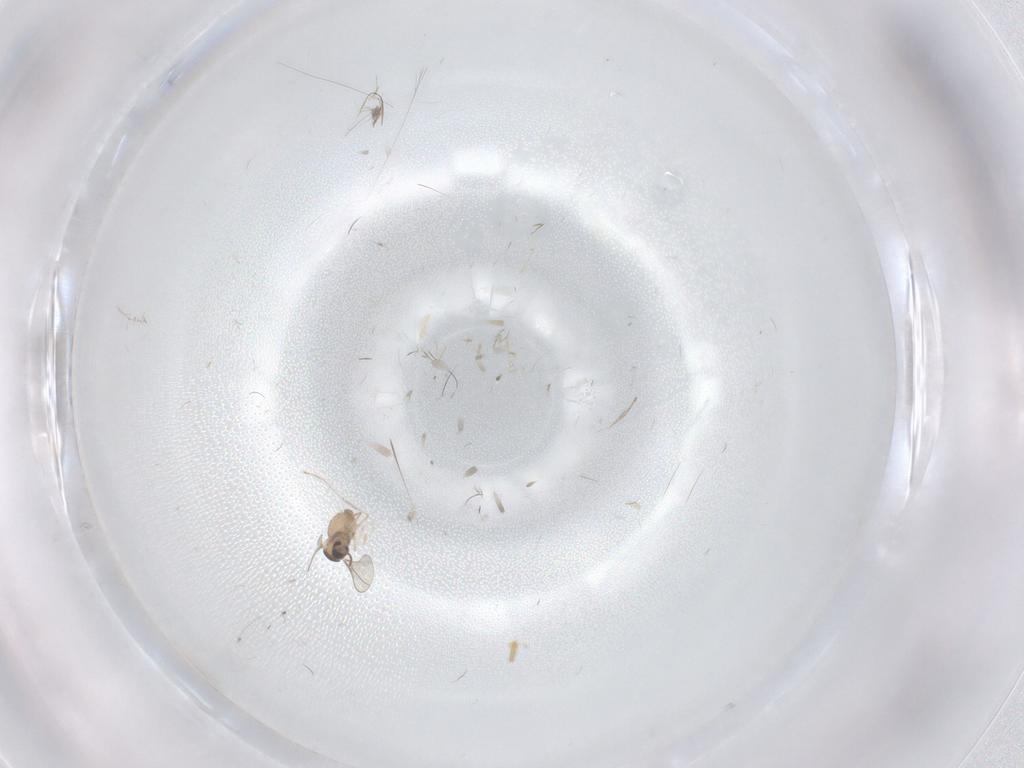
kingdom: Animalia
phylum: Arthropoda
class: Insecta
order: Diptera
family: Cecidomyiidae
